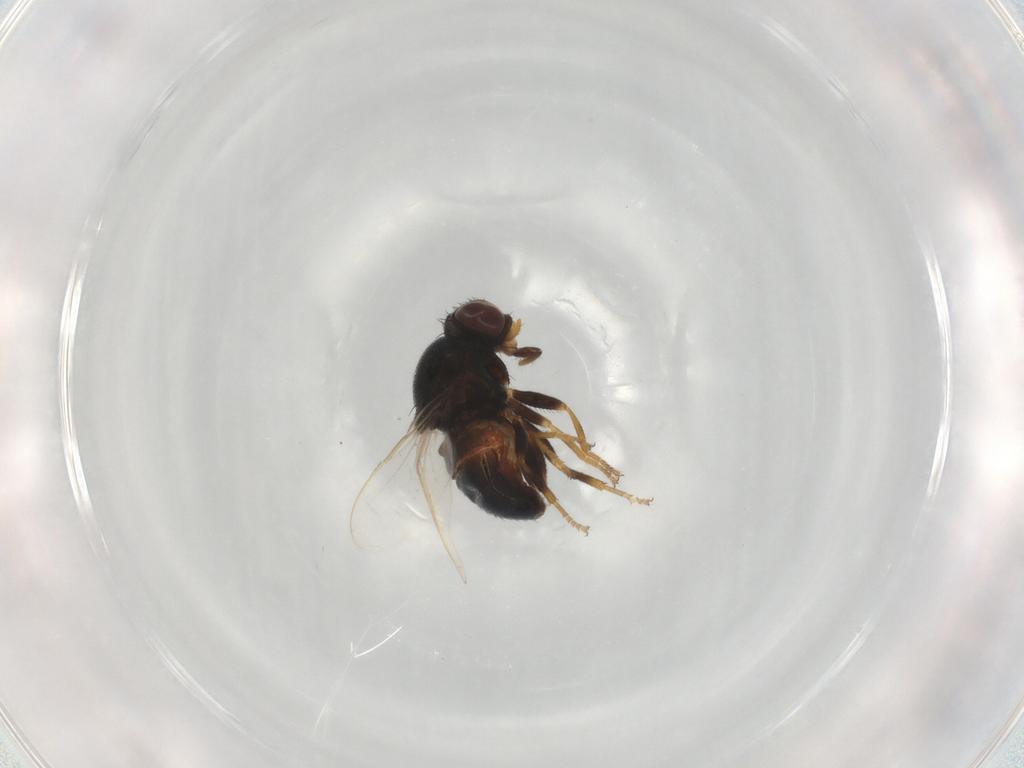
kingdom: Animalia
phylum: Arthropoda
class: Insecta
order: Diptera
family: Chloropidae
